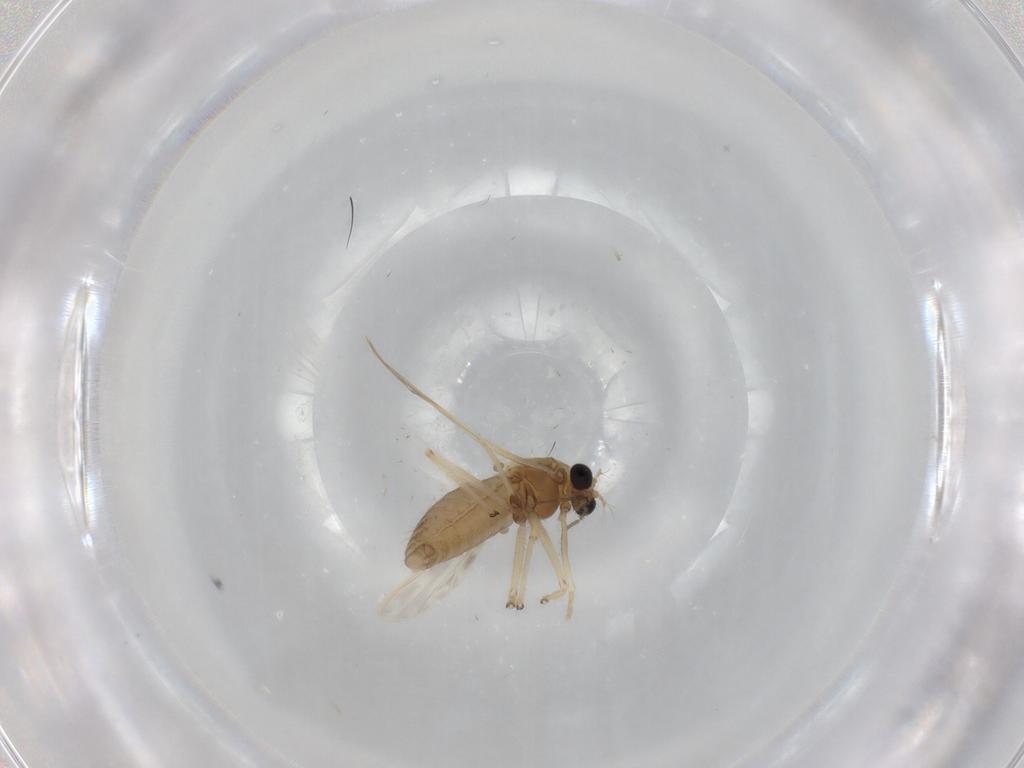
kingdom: Animalia
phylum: Arthropoda
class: Insecta
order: Diptera
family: Chironomidae
